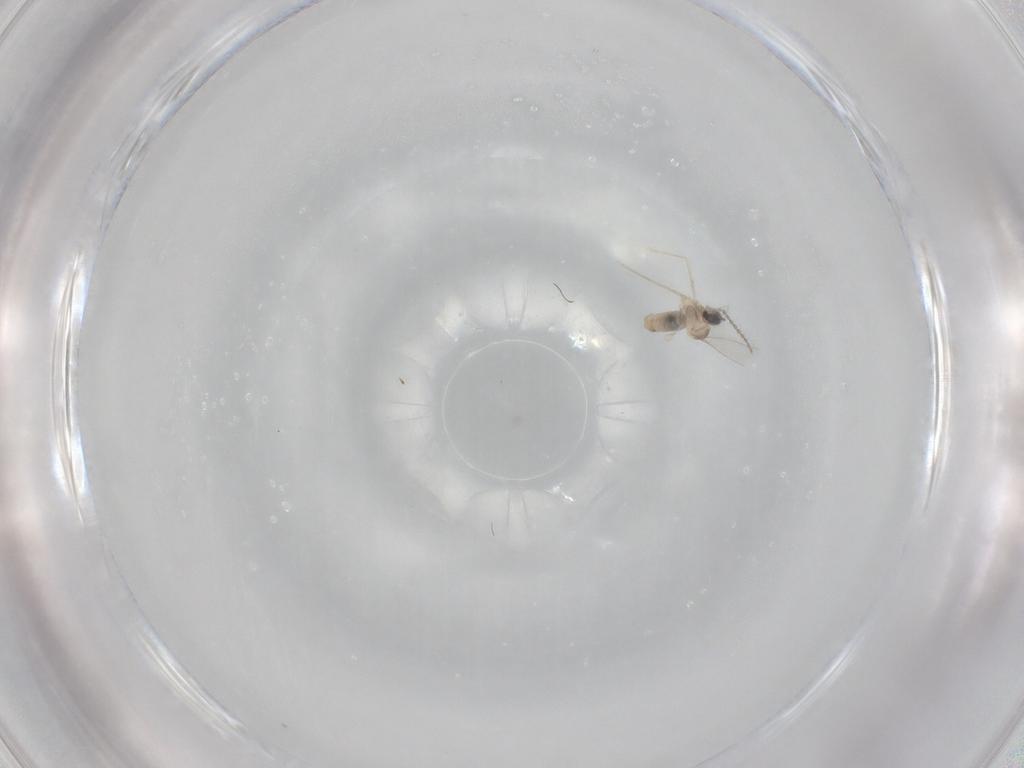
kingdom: Animalia
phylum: Arthropoda
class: Insecta
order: Diptera
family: Cecidomyiidae
